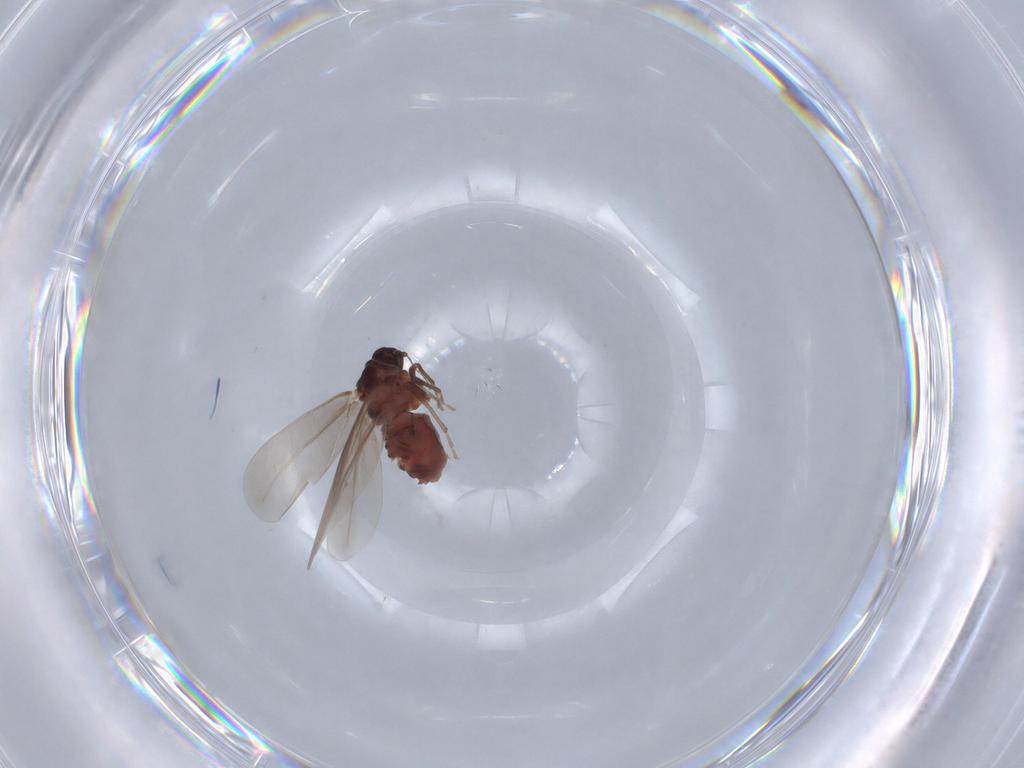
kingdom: Animalia
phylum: Arthropoda
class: Insecta
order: Hemiptera
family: Aleyrodidae
